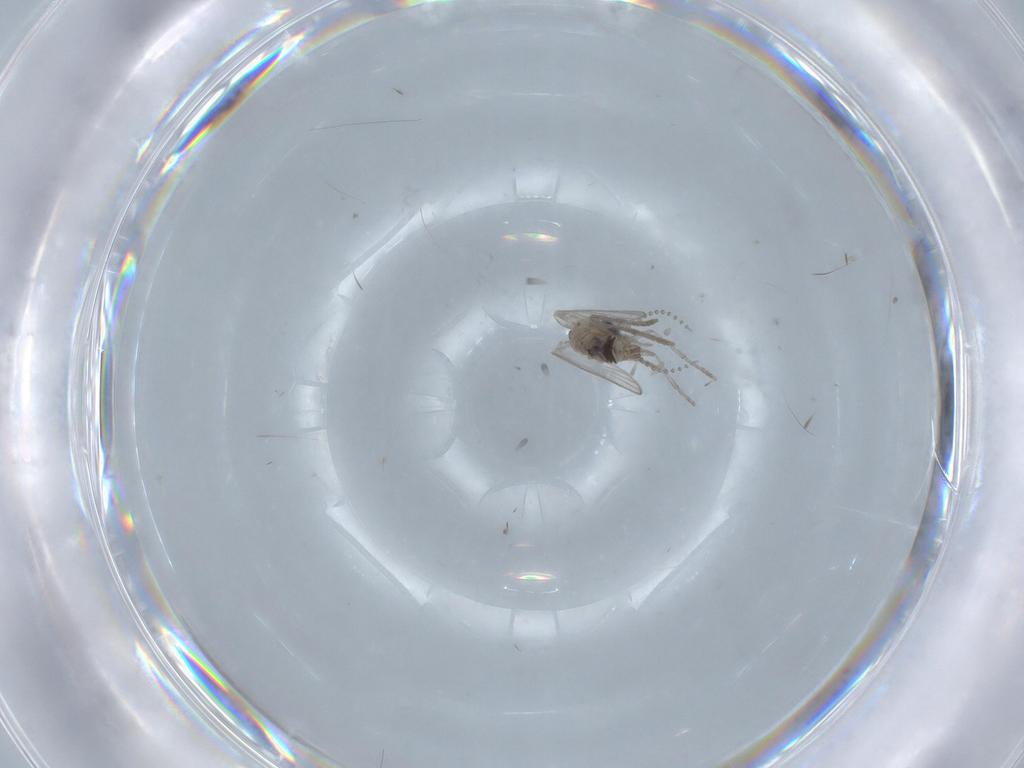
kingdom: Animalia
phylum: Arthropoda
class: Insecta
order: Diptera
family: Psychodidae
